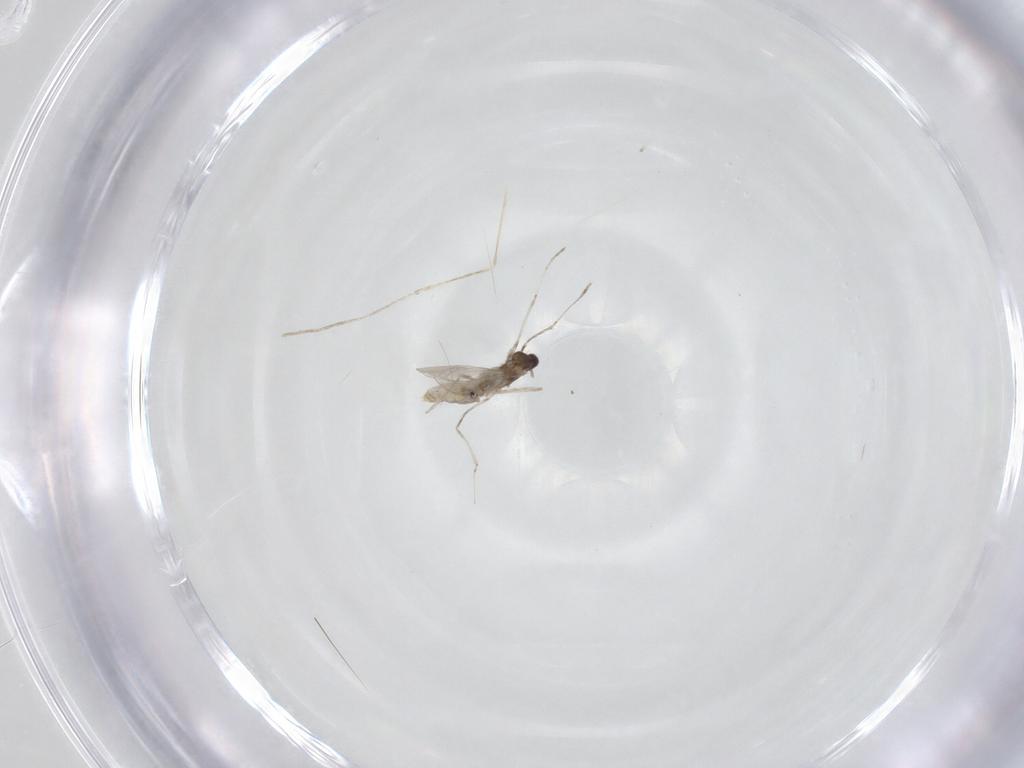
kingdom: Animalia
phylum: Arthropoda
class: Insecta
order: Diptera
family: Cecidomyiidae
